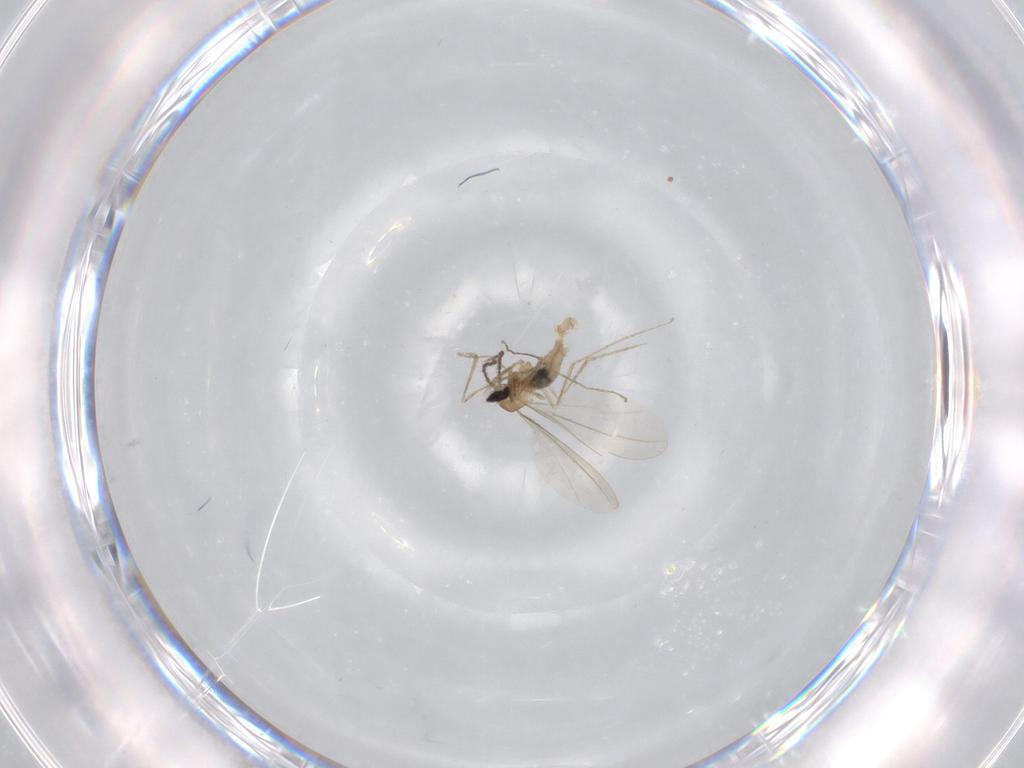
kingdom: Animalia
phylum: Arthropoda
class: Insecta
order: Diptera
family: Cecidomyiidae
